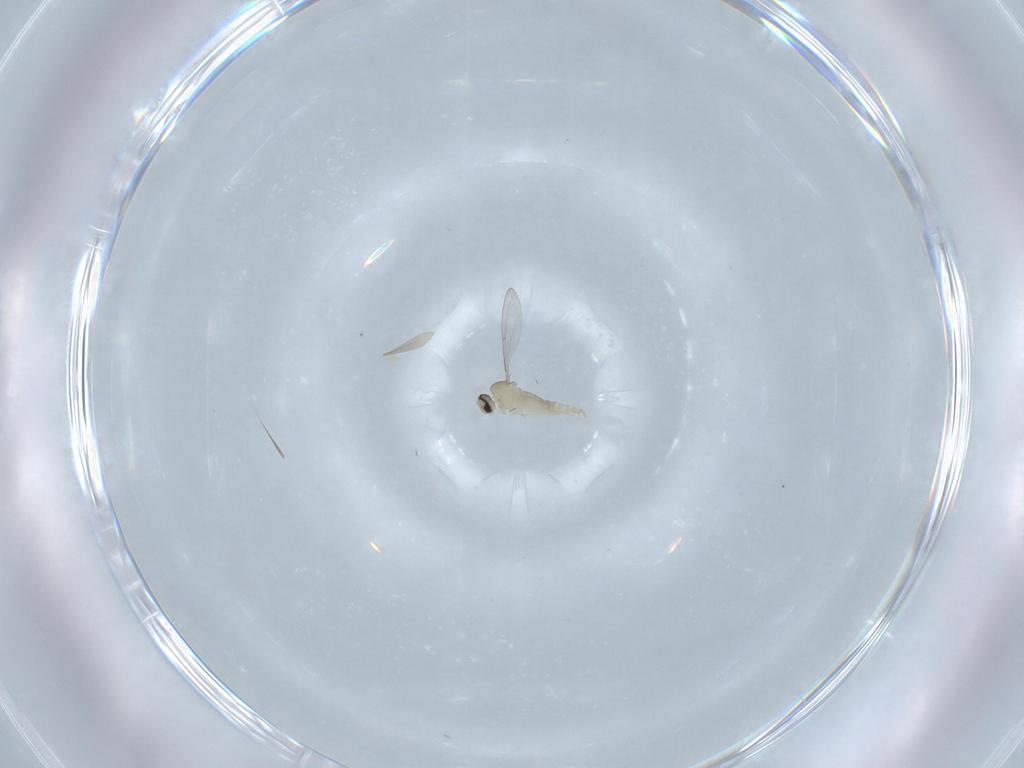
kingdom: Animalia
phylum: Arthropoda
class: Insecta
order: Diptera
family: Cecidomyiidae
